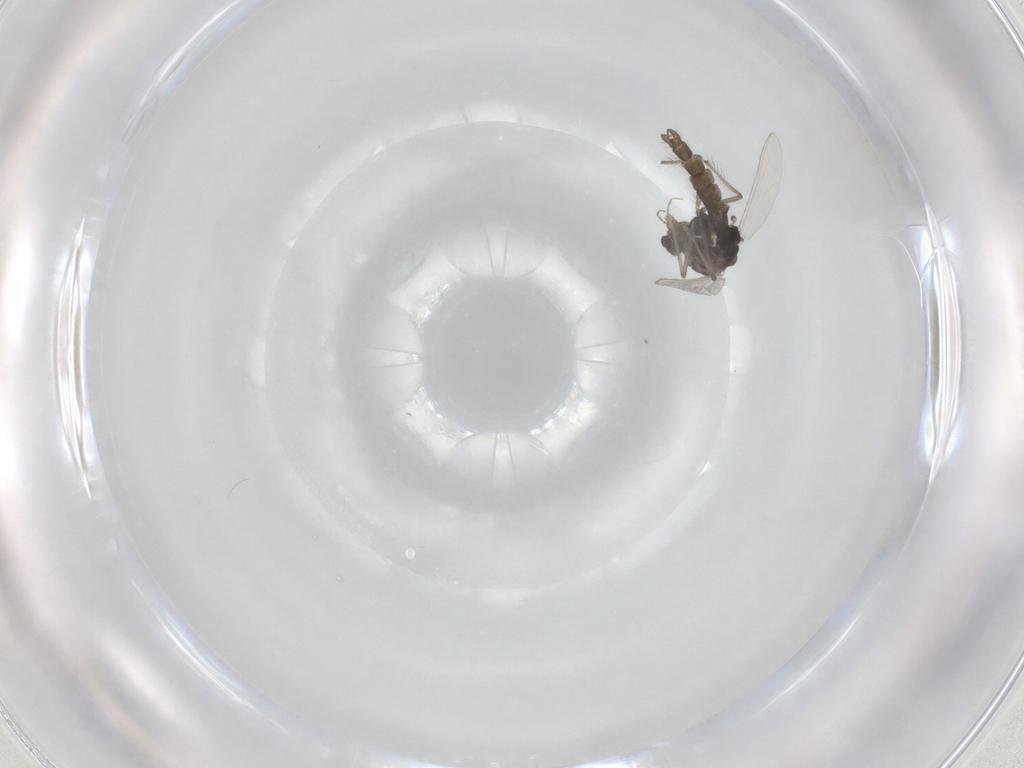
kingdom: Animalia
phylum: Arthropoda
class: Insecta
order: Diptera
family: Chironomidae
